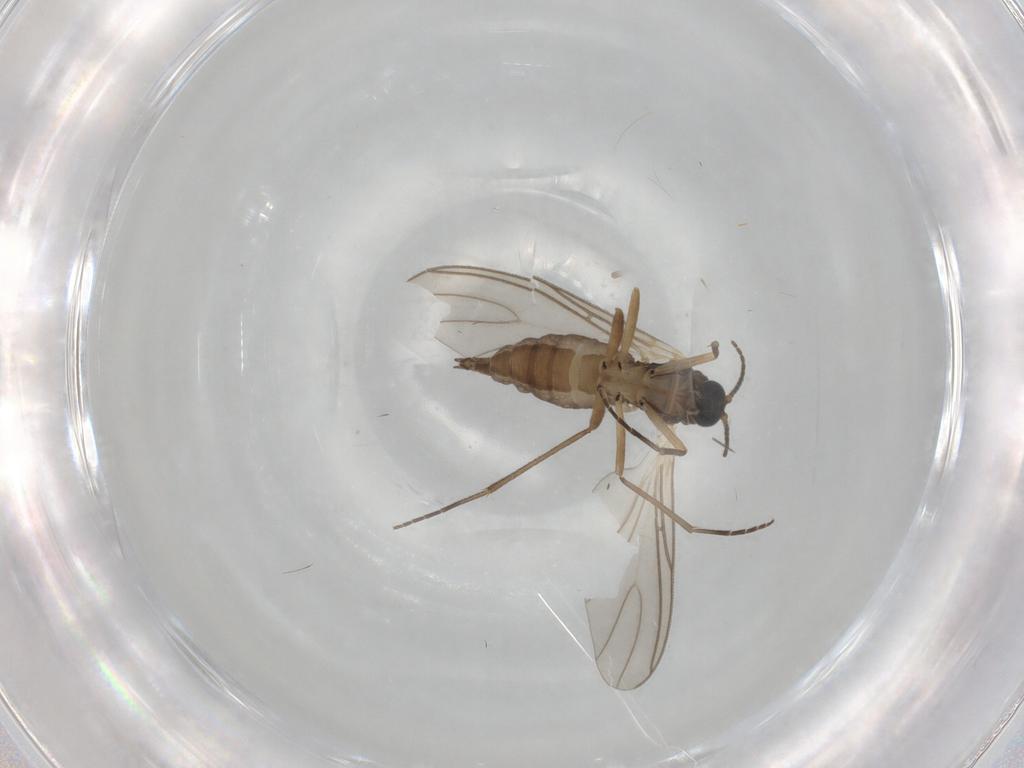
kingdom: Animalia
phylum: Arthropoda
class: Insecta
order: Diptera
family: Sciaridae
